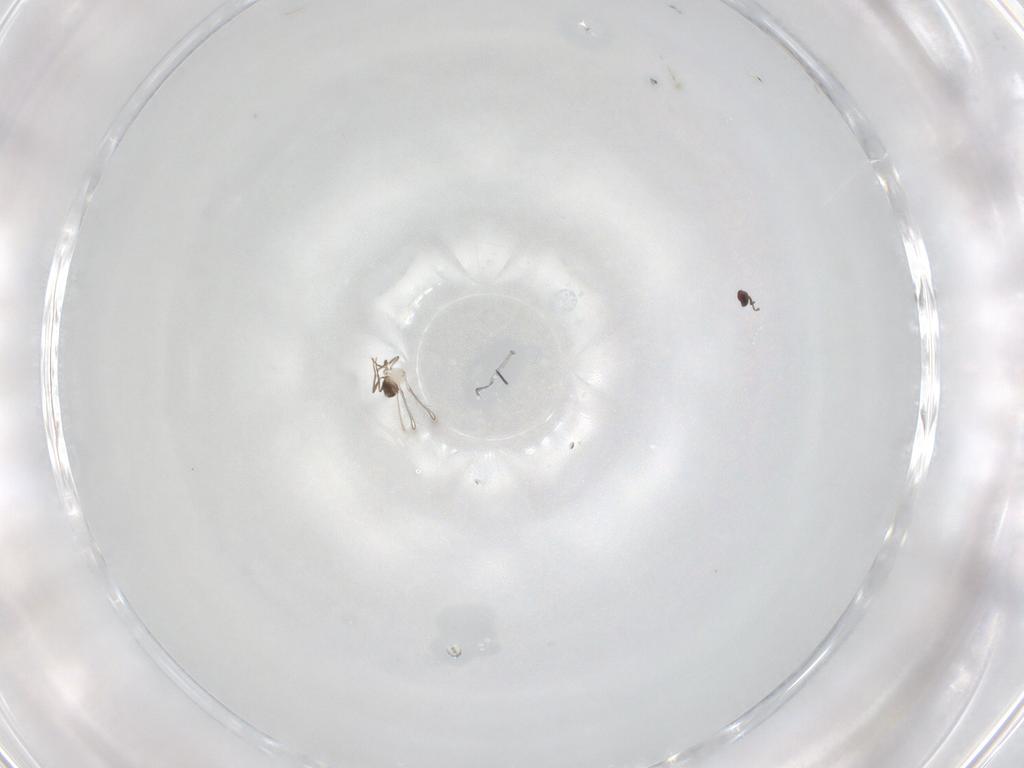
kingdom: Animalia
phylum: Arthropoda
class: Insecta
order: Hymenoptera
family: Mymaridae
